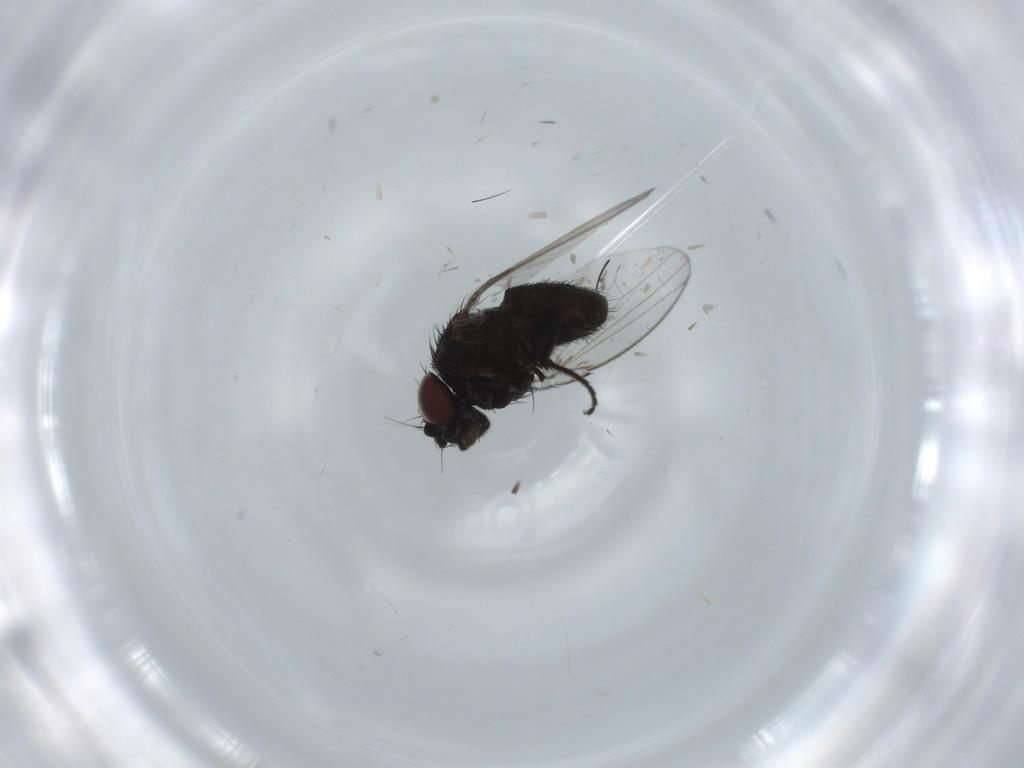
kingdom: Animalia
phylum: Arthropoda
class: Insecta
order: Diptera
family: Milichiidae
